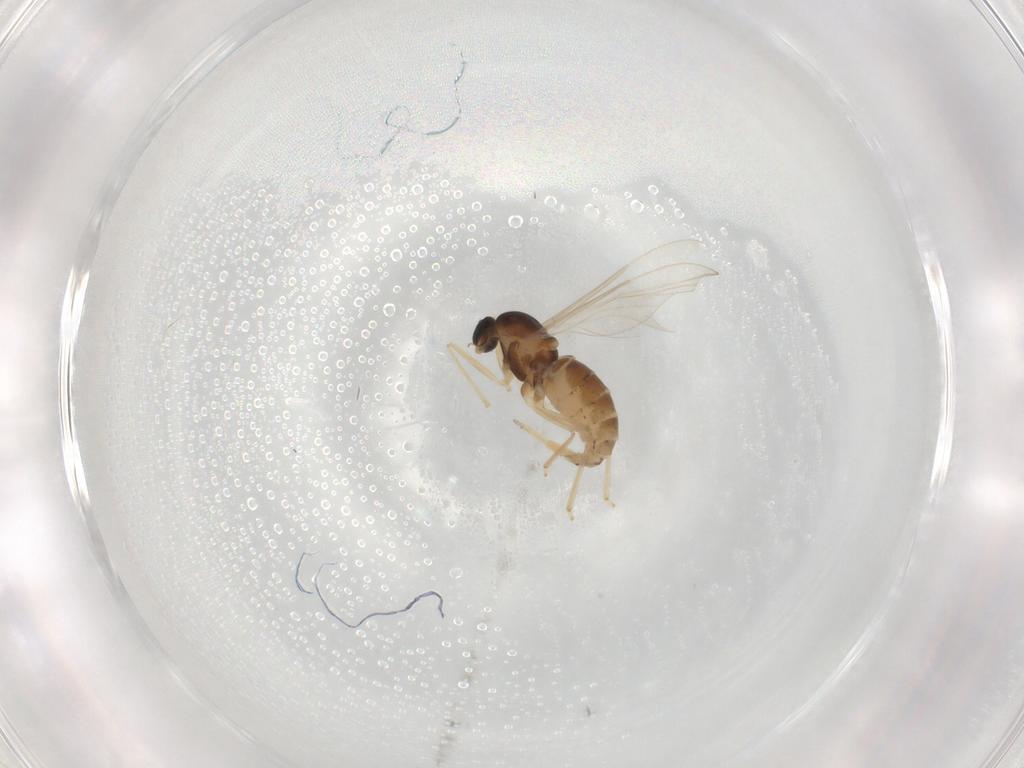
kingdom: Animalia
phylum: Arthropoda
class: Insecta
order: Diptera
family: Cecidomyiidae
